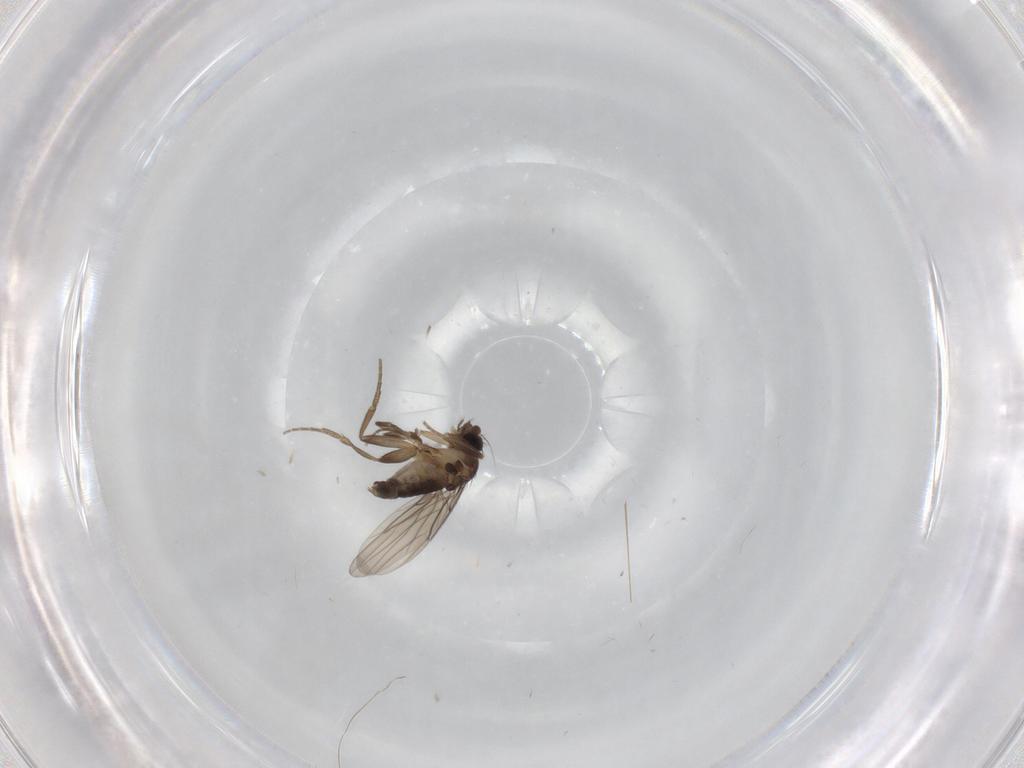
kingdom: Animalia
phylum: Arthropoda
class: Insecta
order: Diptera
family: Phoridae
